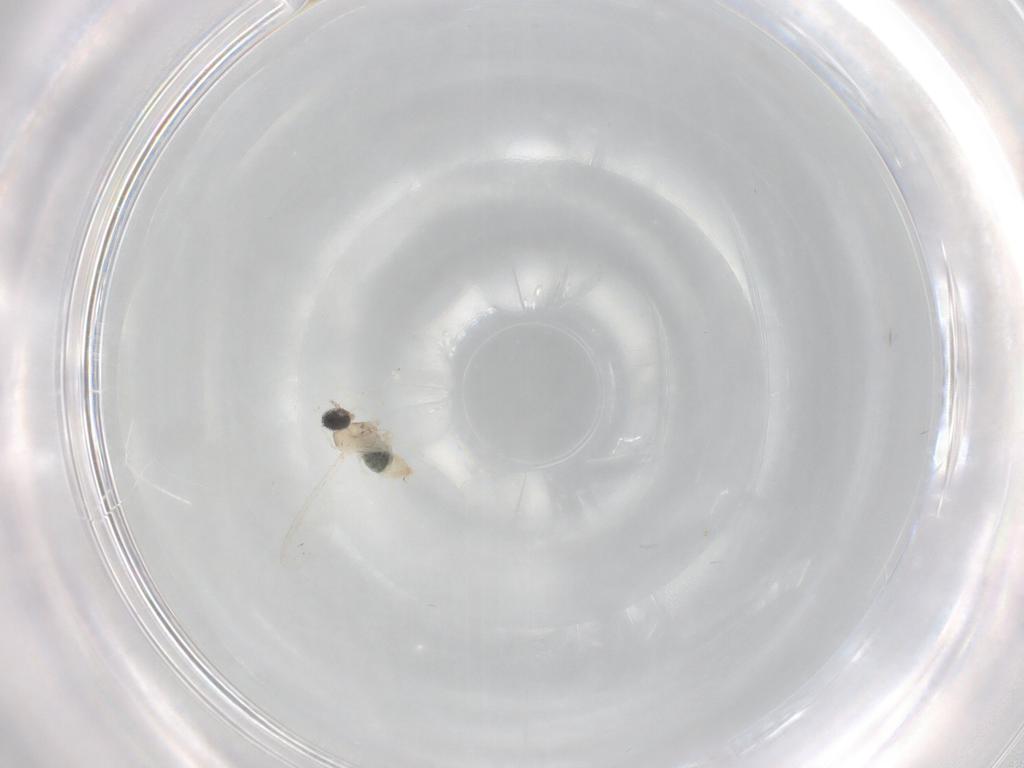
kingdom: Animalia
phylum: Arthropoda
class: Insecta
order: Diptera
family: Cecidomyiidae
